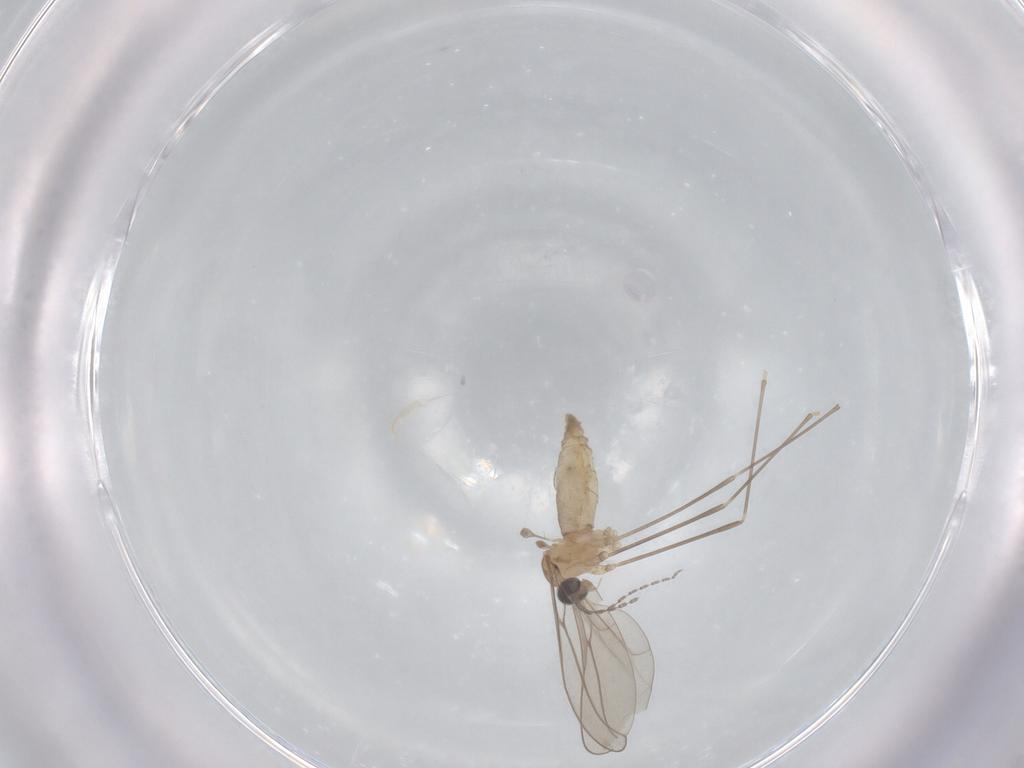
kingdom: Animalia
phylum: Arthropoda
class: Insecta
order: Diptera
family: Cecidomyiidae
